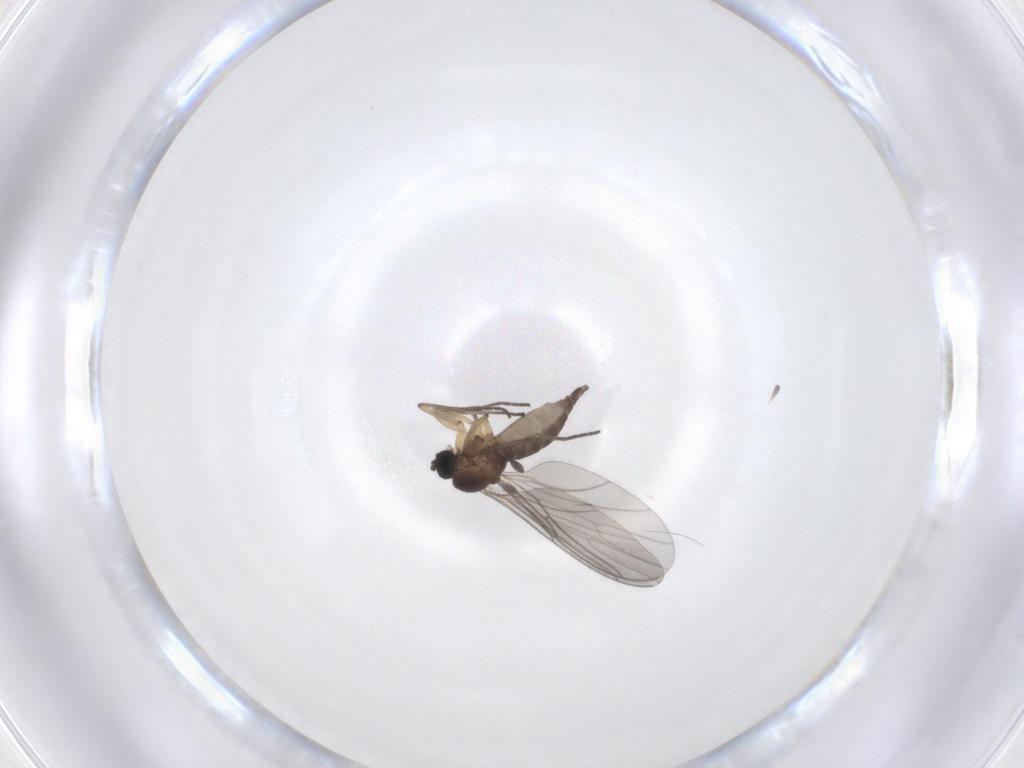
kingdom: Animalia
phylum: Arthropoda
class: Insecta
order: Diptera
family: Sciaridae
